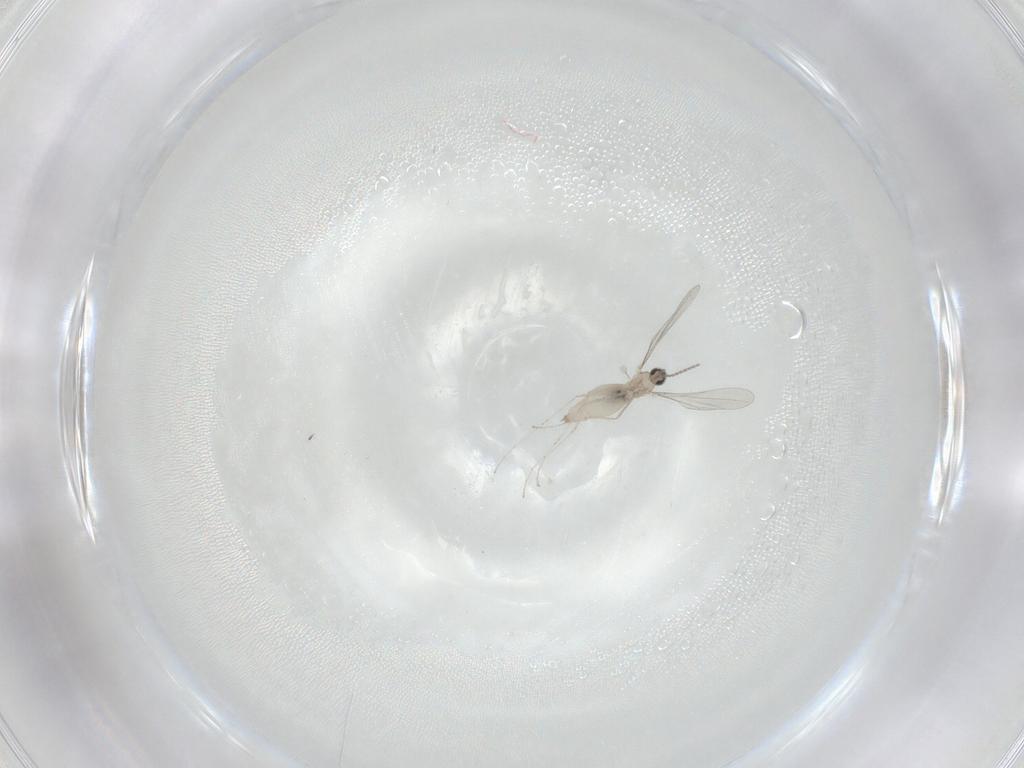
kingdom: Animalia
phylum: Arthropoda
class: Insecta
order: Diptera
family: Cecidomyiidae
